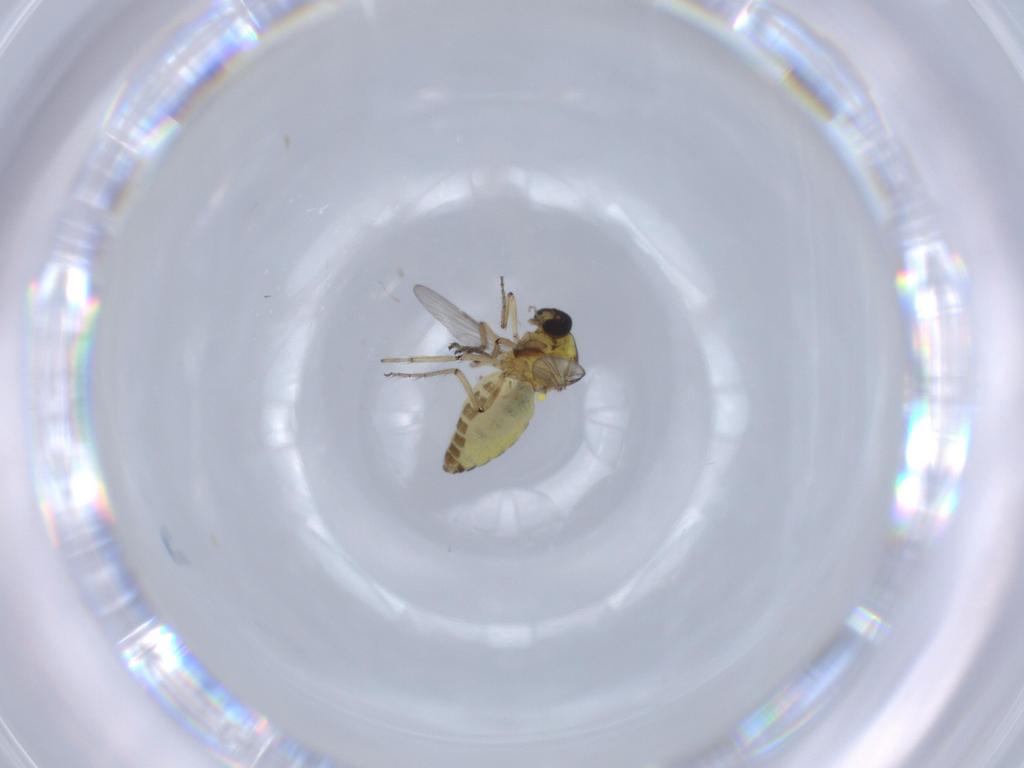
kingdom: Animalia
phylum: Arthropoda
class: Insecta
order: Diptera
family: Ceratopogonidae
